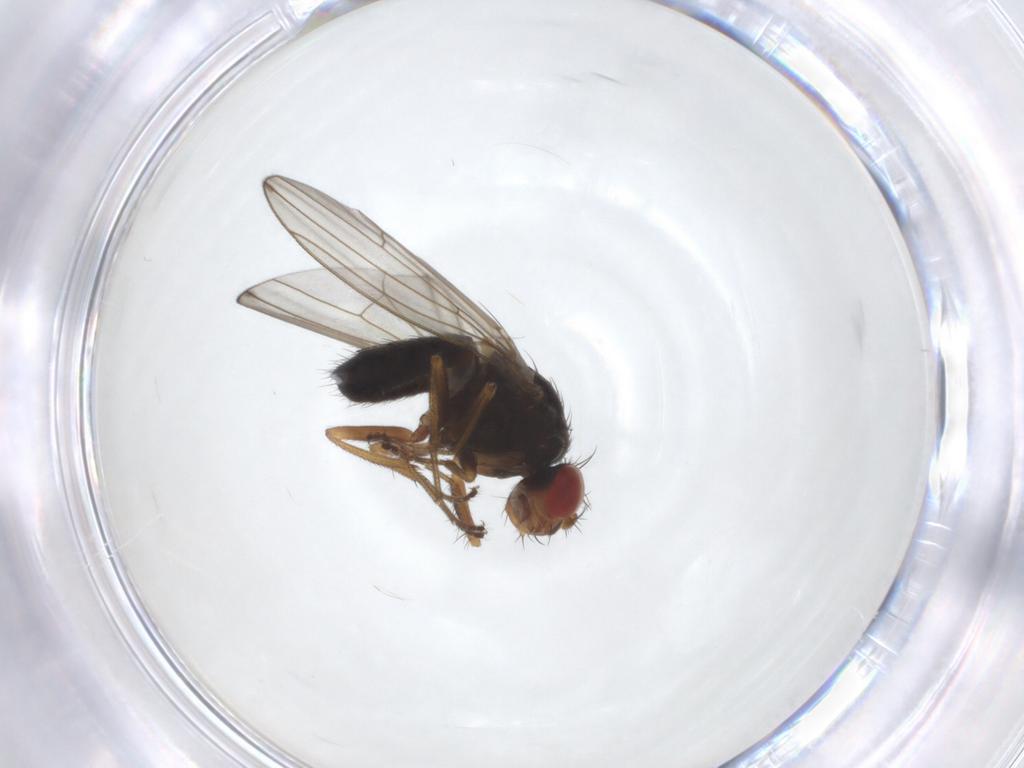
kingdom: Animalia
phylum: Arthropoda
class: Insecta
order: Diptera
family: Drosophilidae
